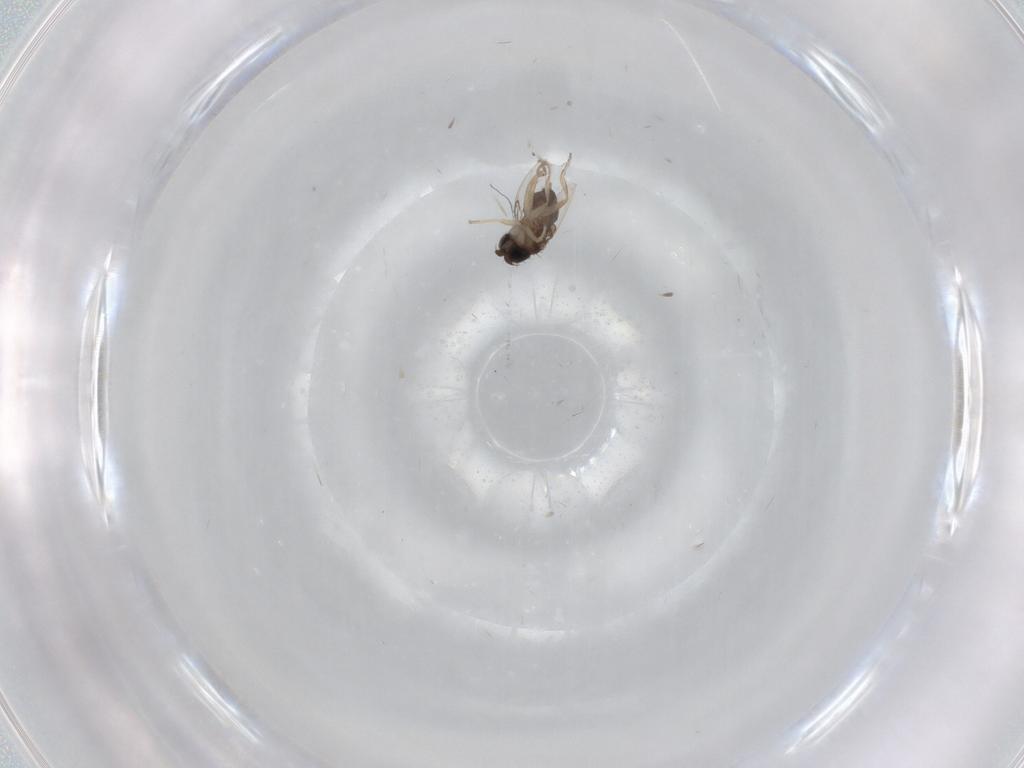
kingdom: Animalia
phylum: Arthropoda
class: Insecta
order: Diptera
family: Phoridae
